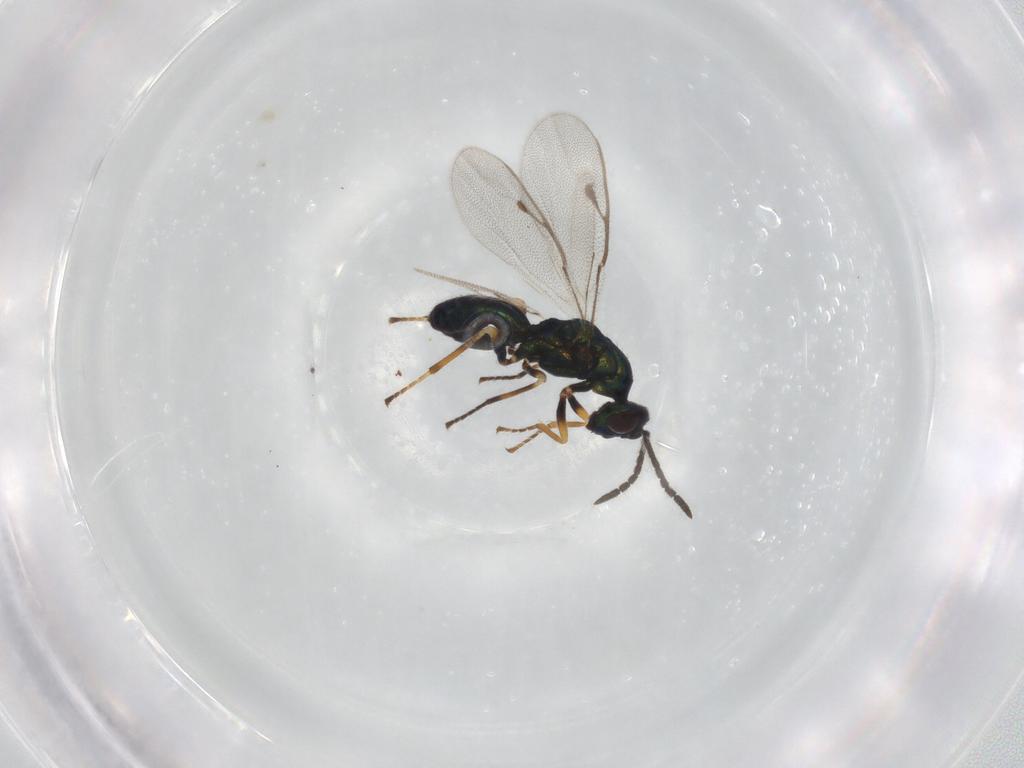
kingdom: Animalia
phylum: Arthropoda
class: Insecta
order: Hymenoptera
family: Pteromalidae
